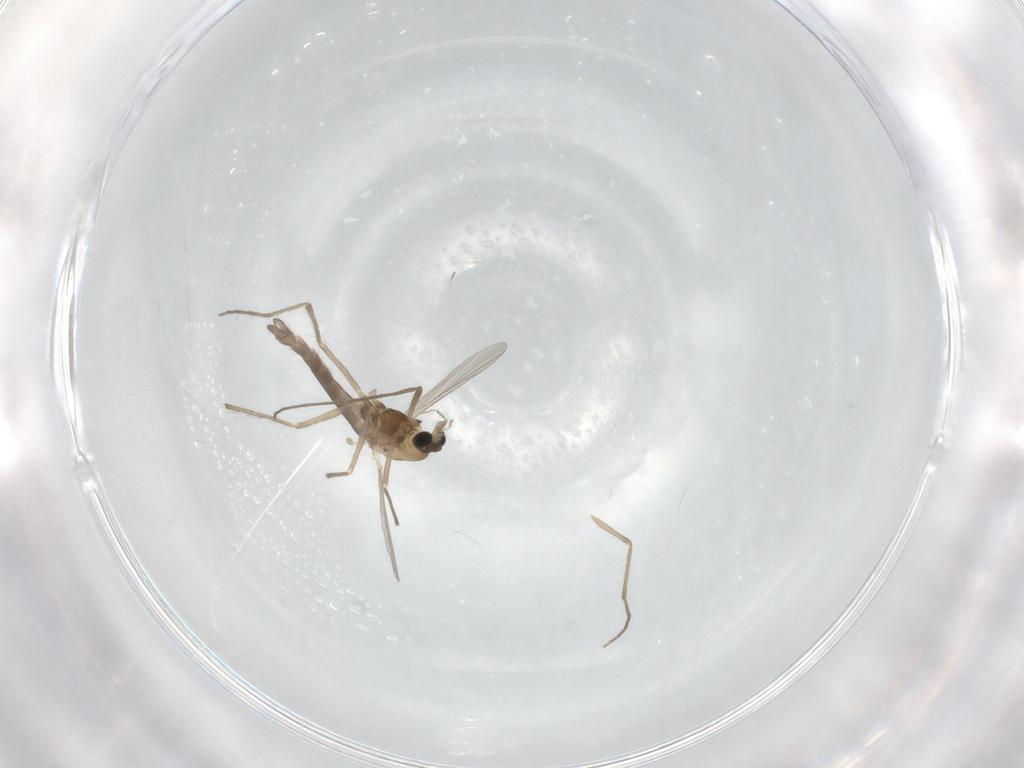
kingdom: Animalia
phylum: Arthropoda
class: Insecta
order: Diptera
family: Chironomidae
